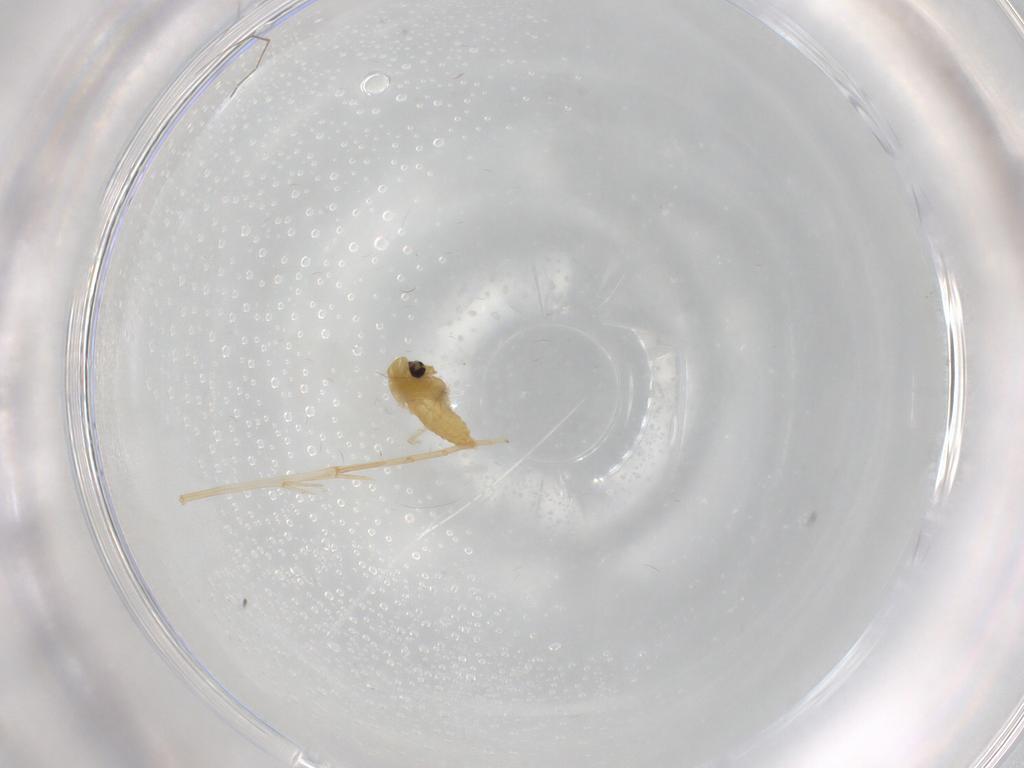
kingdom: Animalia
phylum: Arthropoda
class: Insecta
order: Diptera
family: Chironomidae
